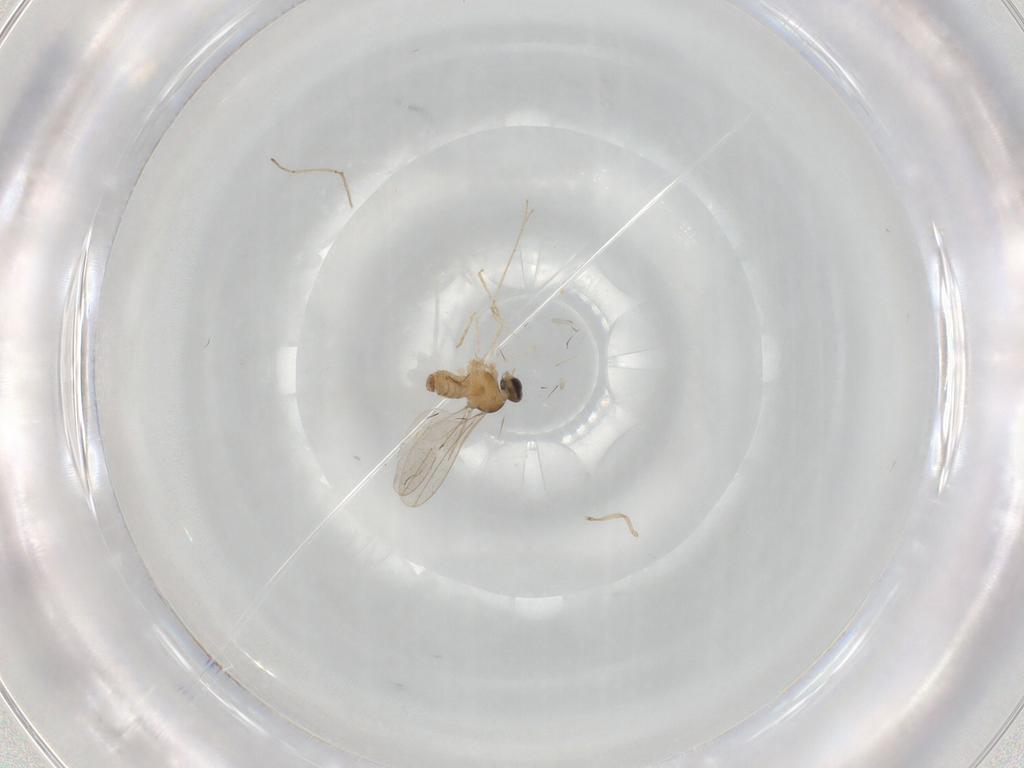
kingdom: Animalia
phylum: Arthropoda
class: Insecta
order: Diptera
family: Cecidomyiidae
